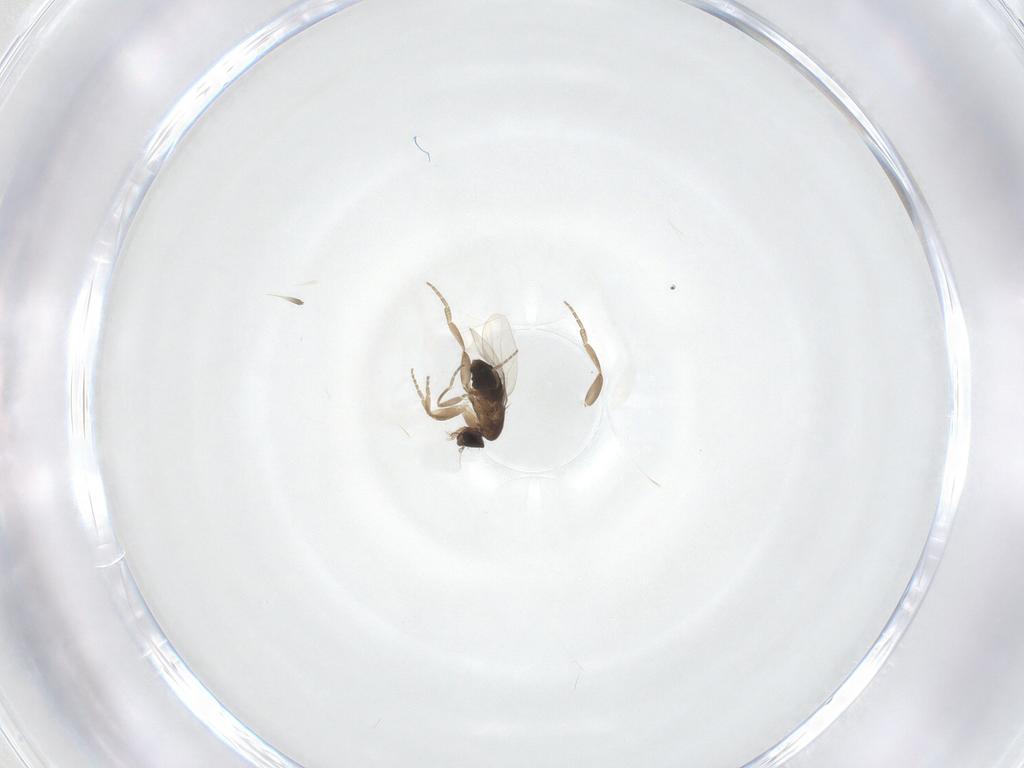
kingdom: Animalia
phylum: Arthropoda
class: Insecta
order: Diptera
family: Phoridae
